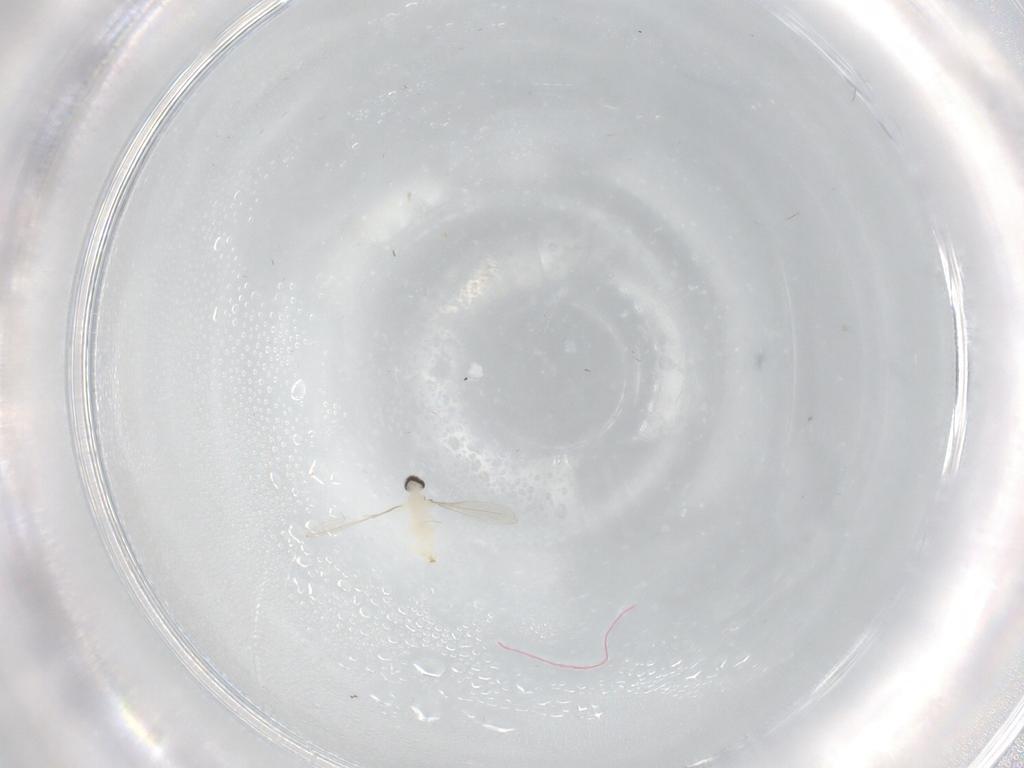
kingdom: Animalia
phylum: Arthropoda
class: Insecta
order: Diptera
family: Cecidomyiidae
